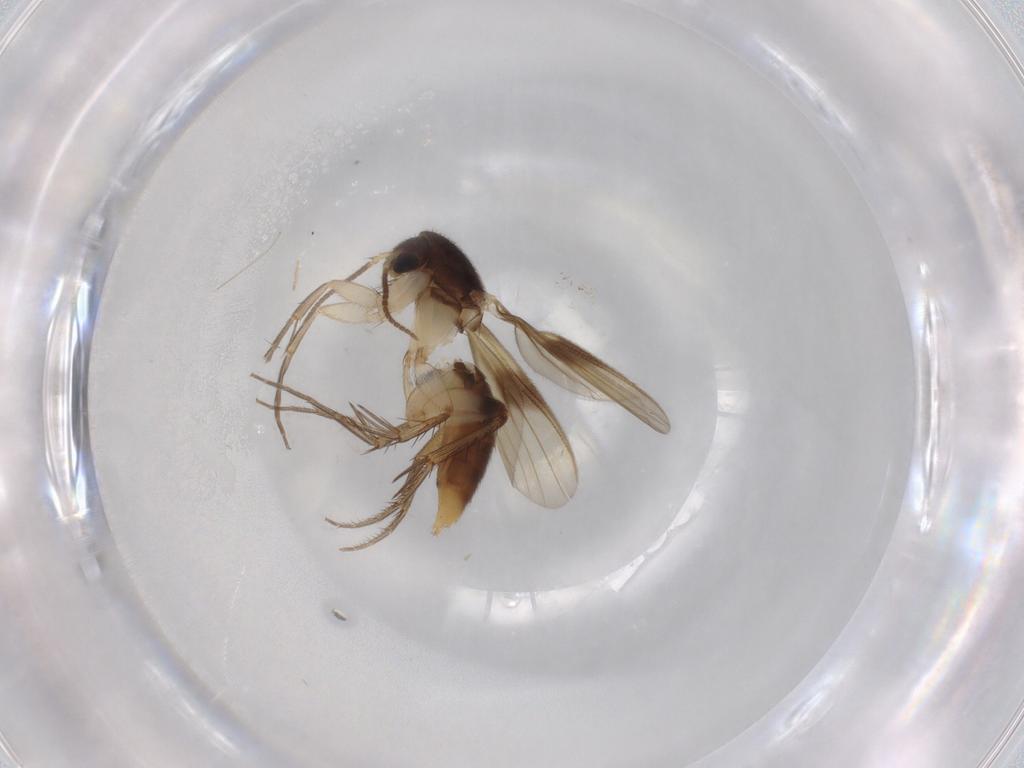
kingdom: Animalia
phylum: Arthropoda
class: Insecta
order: Diptera
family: Mycetophilidae
